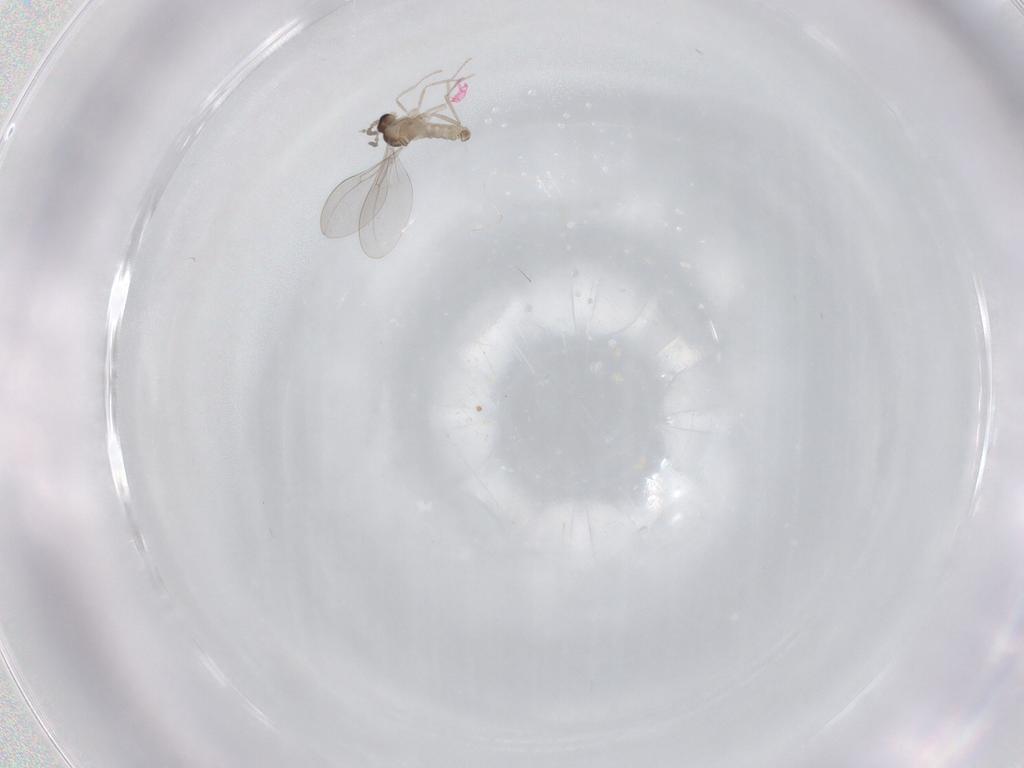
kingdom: Animalia
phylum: Arthropoda
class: Insecta
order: Diptera
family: Cecidomyiidae
